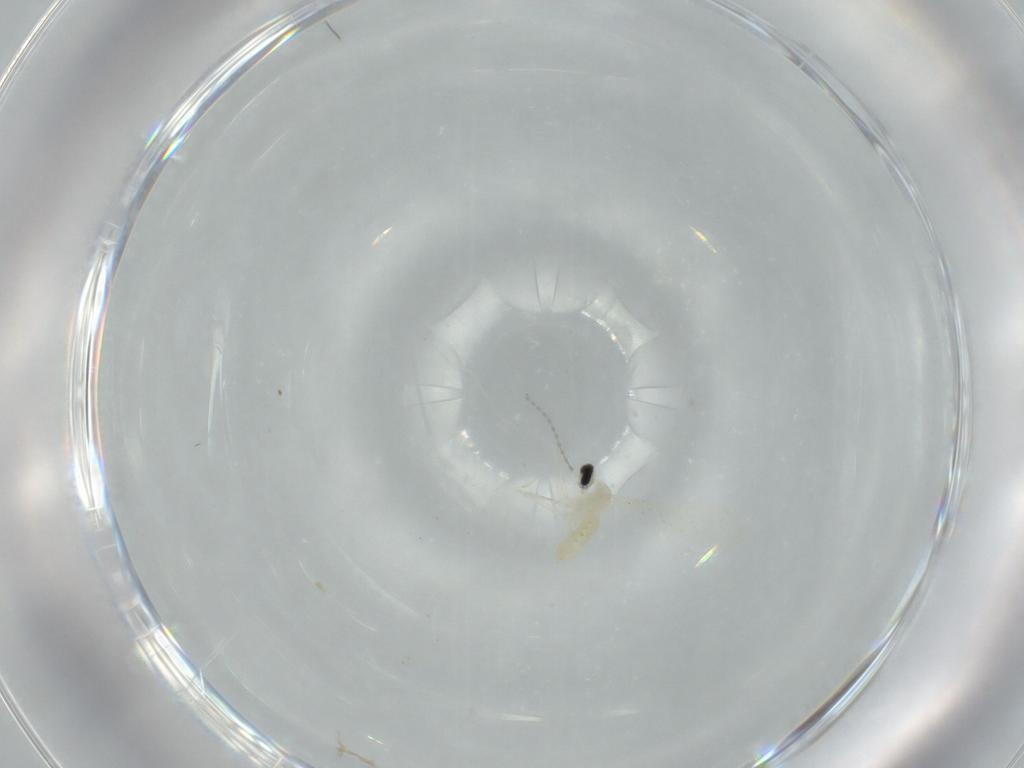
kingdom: Animalia
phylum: Arthropoda
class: Insecta
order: Diptera
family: Cecidomyiidae
